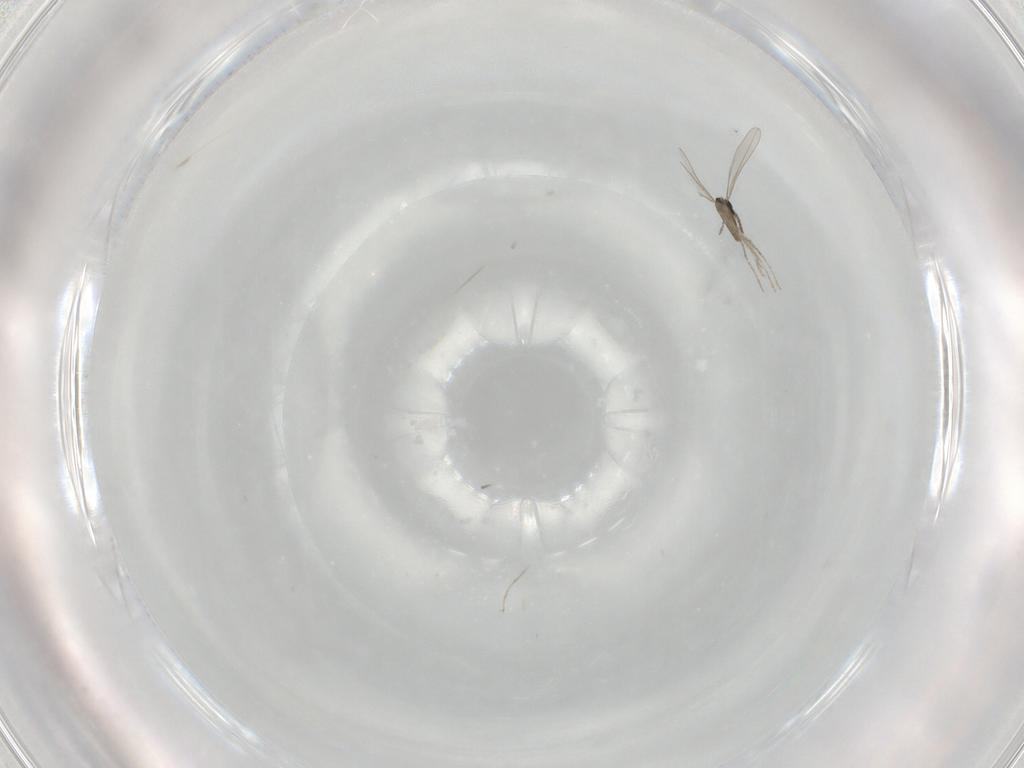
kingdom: Animalia
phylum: Arthropoda
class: Insecta
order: Diptera
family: Cecidomyiidae
